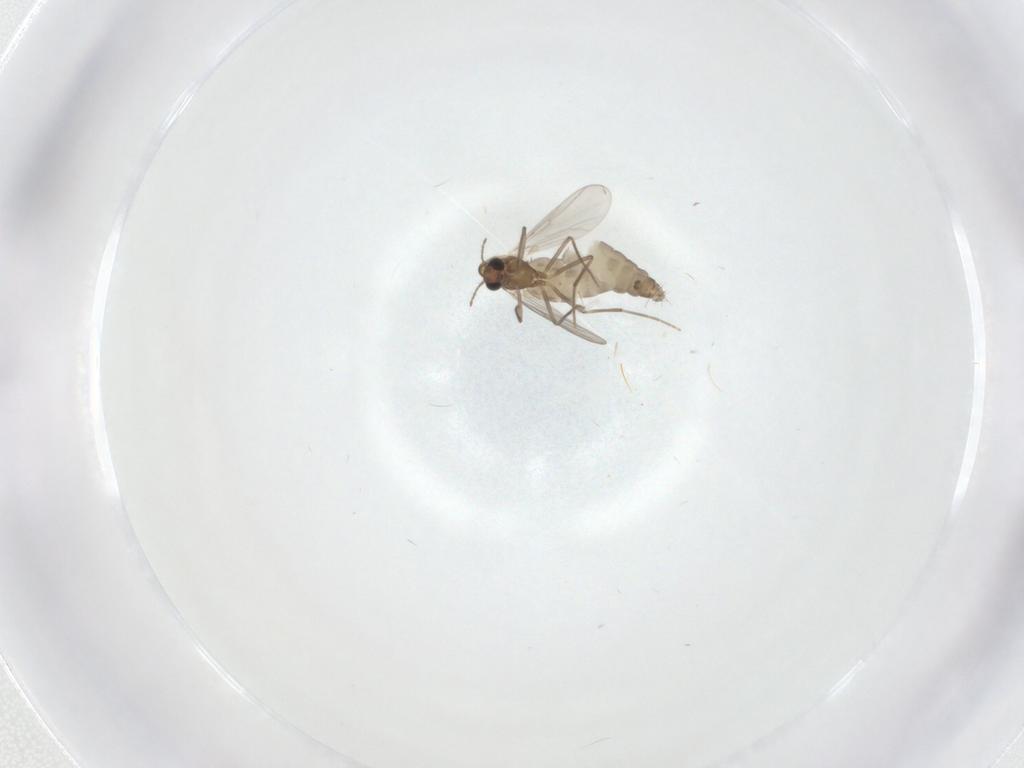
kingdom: Animalia
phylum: Arthropoda
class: Insecta
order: Diptera
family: Chironomidae
